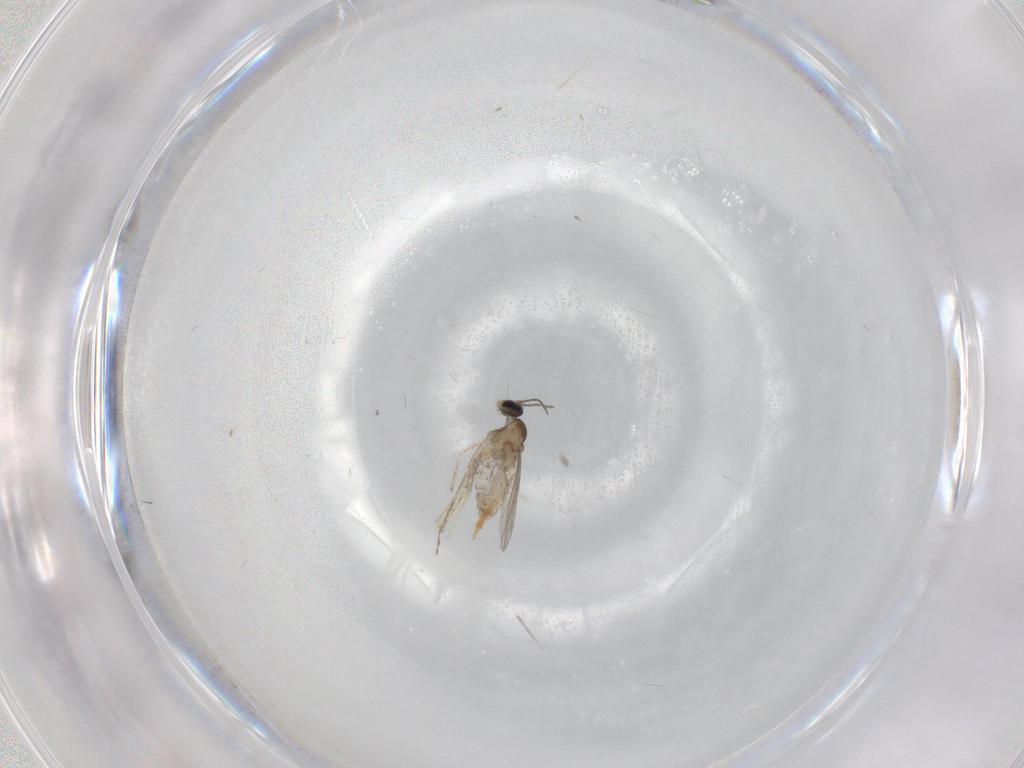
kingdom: Animalia
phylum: Arthropoda
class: Insecta
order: Diptera
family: Cecidomyiidae
